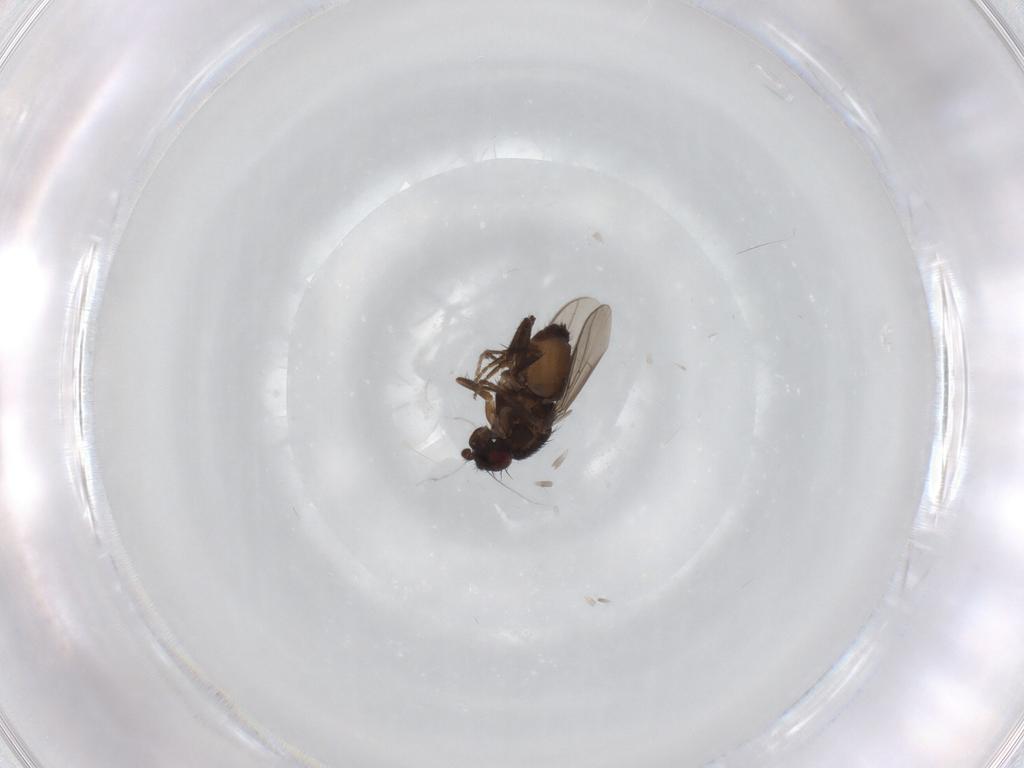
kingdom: Animalia
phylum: Arthropoda
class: Insecta
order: Diptera
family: Sphaeroceridae
